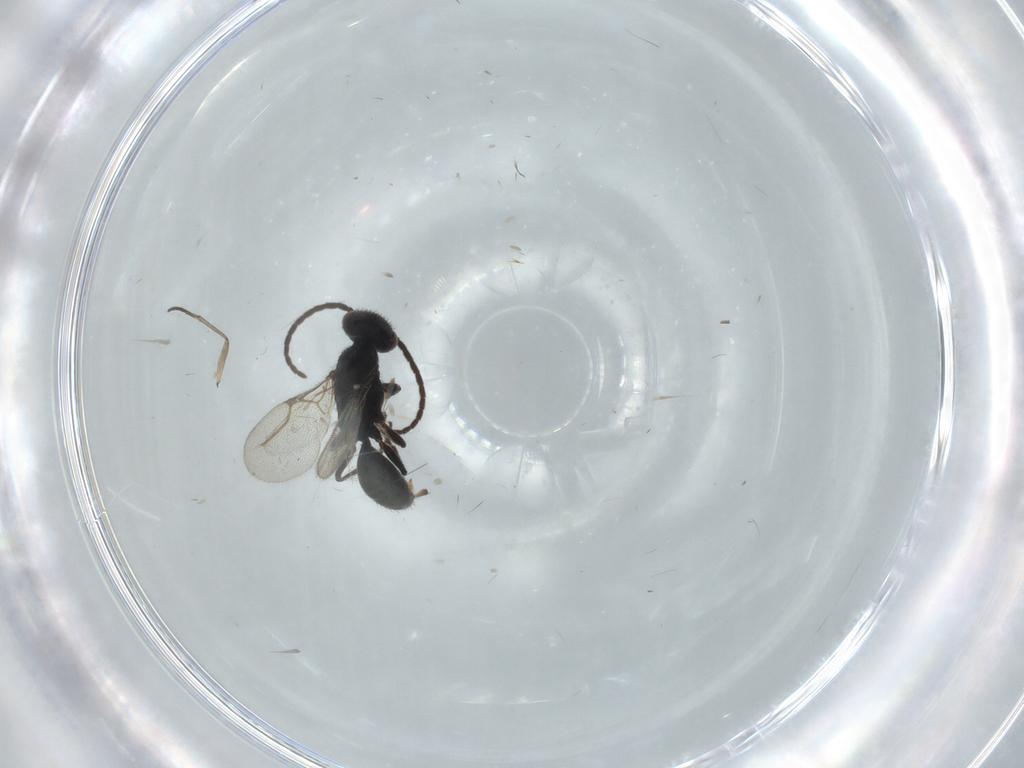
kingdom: Animalia
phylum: Arthropoda
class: Insecta
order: Hymenoptera
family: Bethylidae
